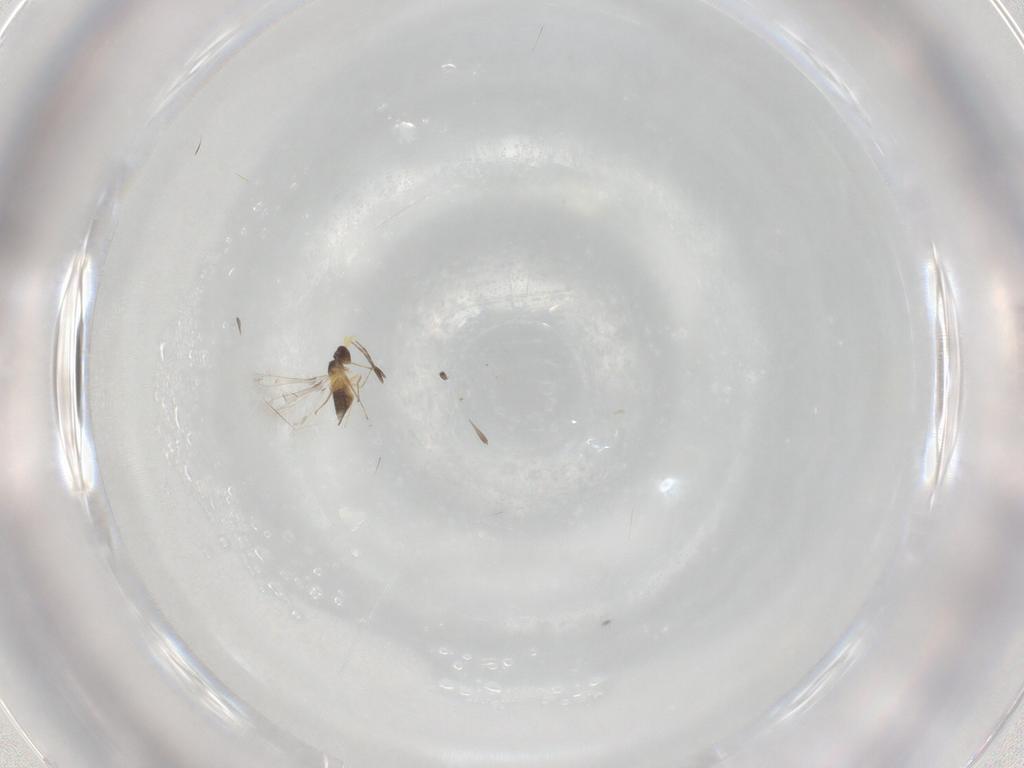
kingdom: Animalia
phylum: Arthropoda
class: Insecta
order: Hymenoptera
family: Mymaridae
